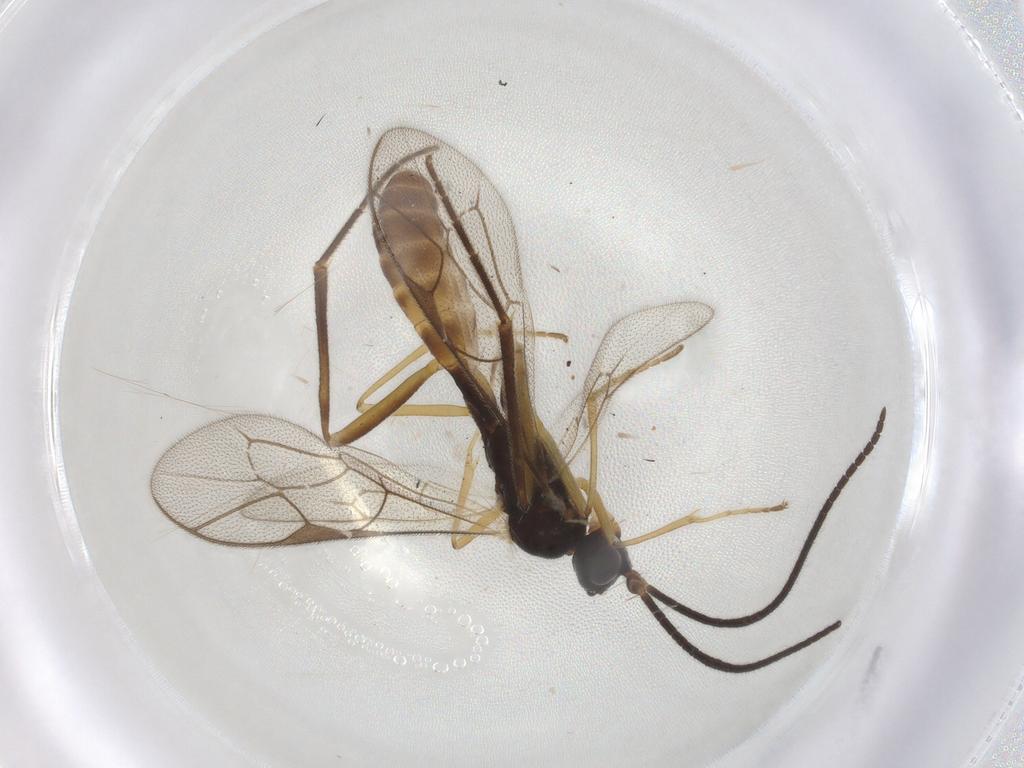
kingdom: Animalia
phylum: Arthropoda
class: Insecta
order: Hymenoptera
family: Ichneumonidae
